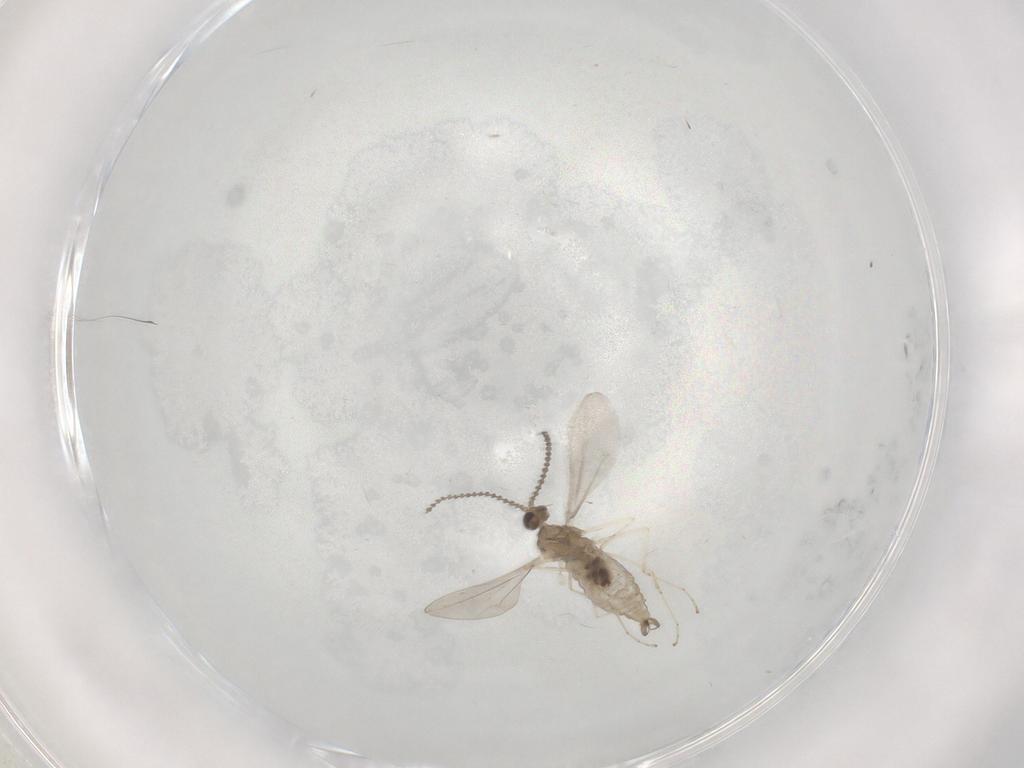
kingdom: Animalia
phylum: Arthropoda
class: Insecta
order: Diptera
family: Cecidomyiidae
